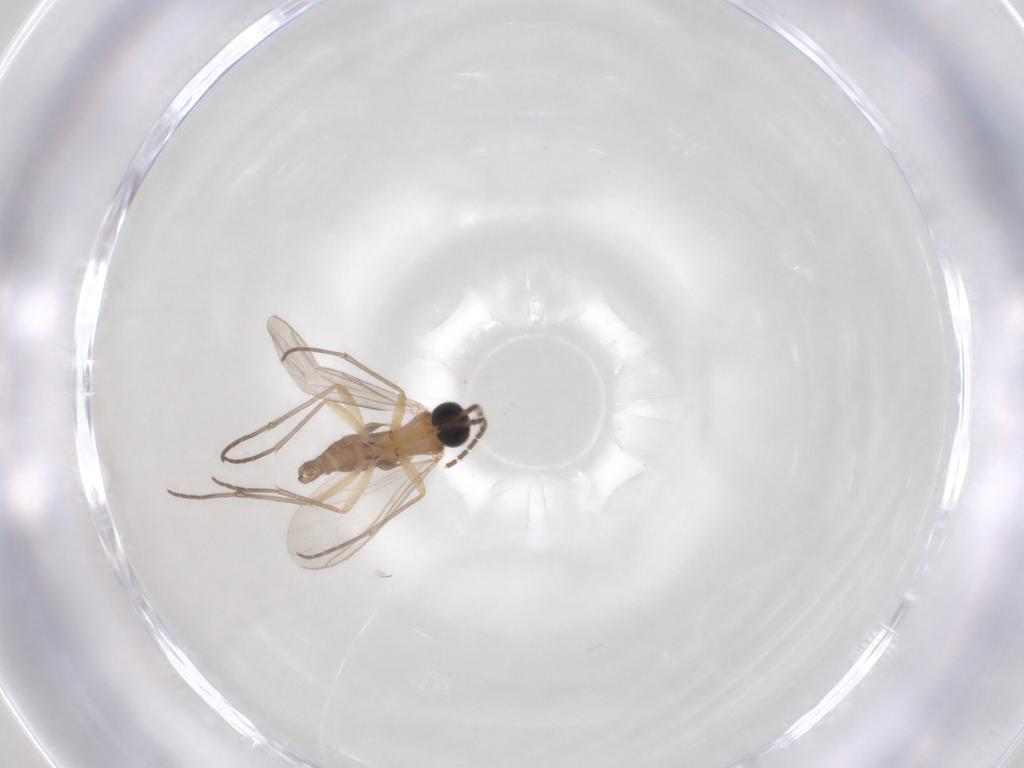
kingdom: Animalia
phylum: Arthropoda
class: Insecta
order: Diptera
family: Sciaridae
